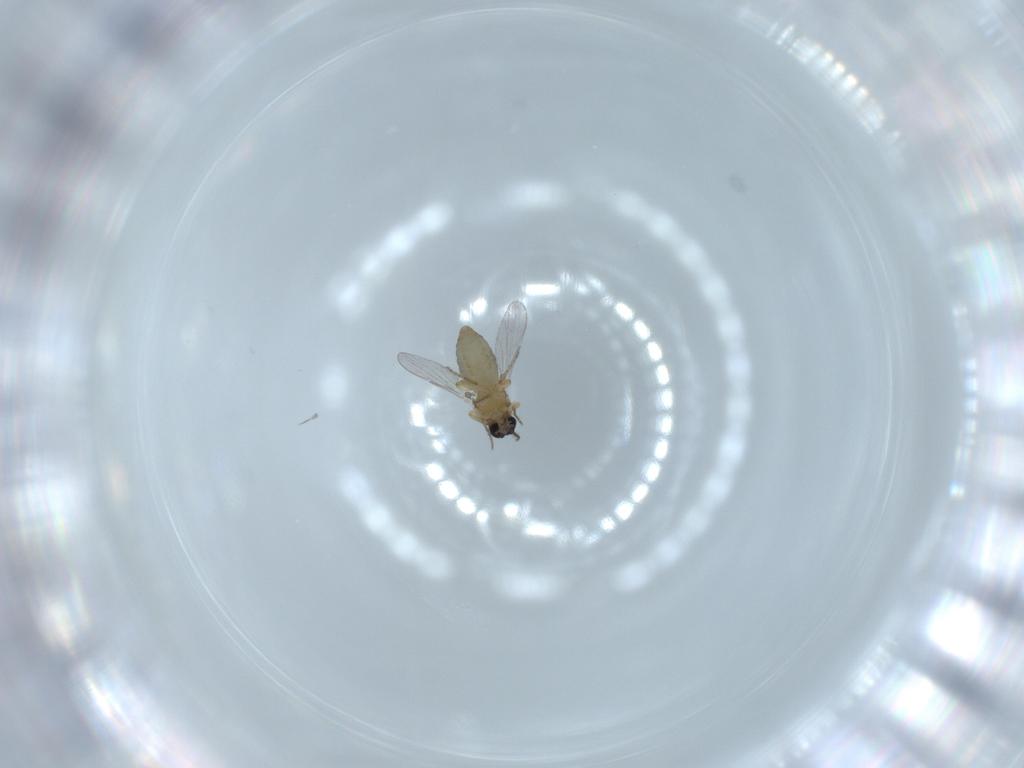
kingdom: Animalia
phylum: Arthropoda
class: Insecta
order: Diptera
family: Ceratopogonidae
